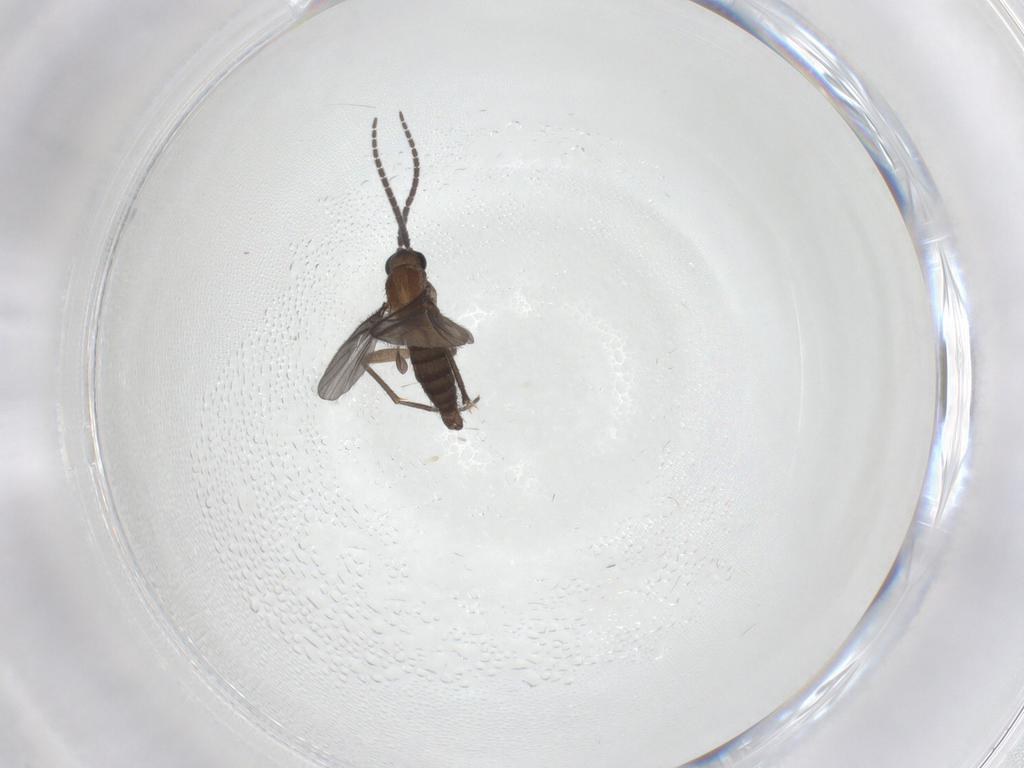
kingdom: Animalia
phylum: Arthropoda
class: Insecta
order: Diptera
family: Sciaridae
